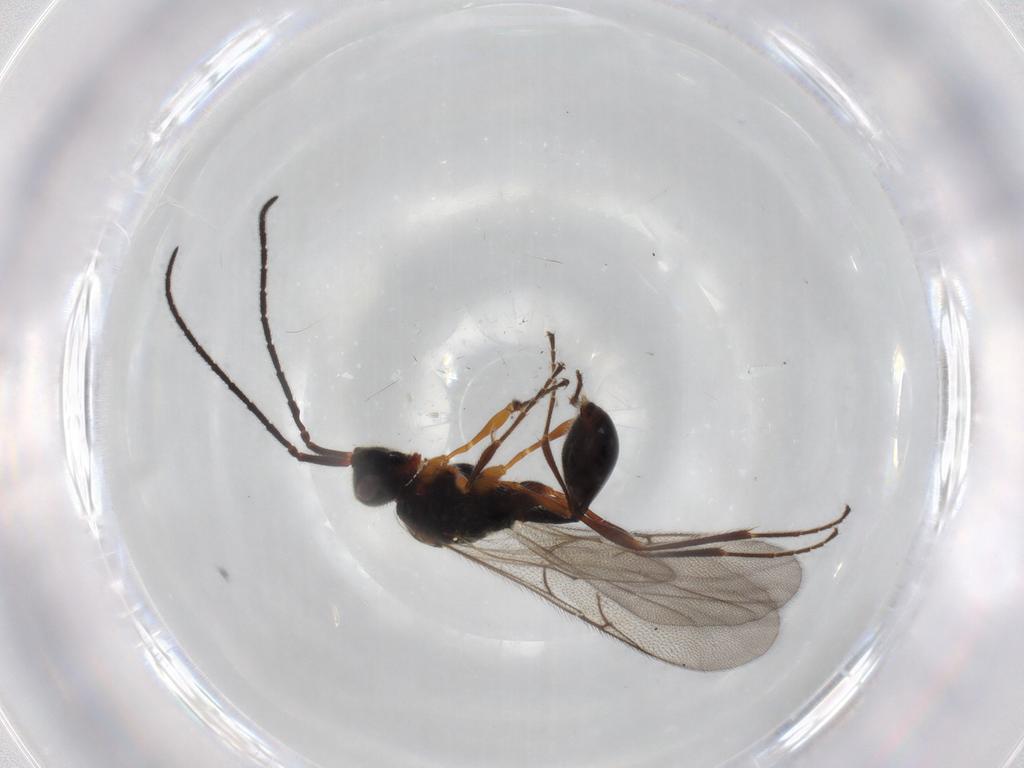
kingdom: Animalia
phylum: Arthropoda
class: Insecta
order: Hymenoptera
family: Diapriidae
